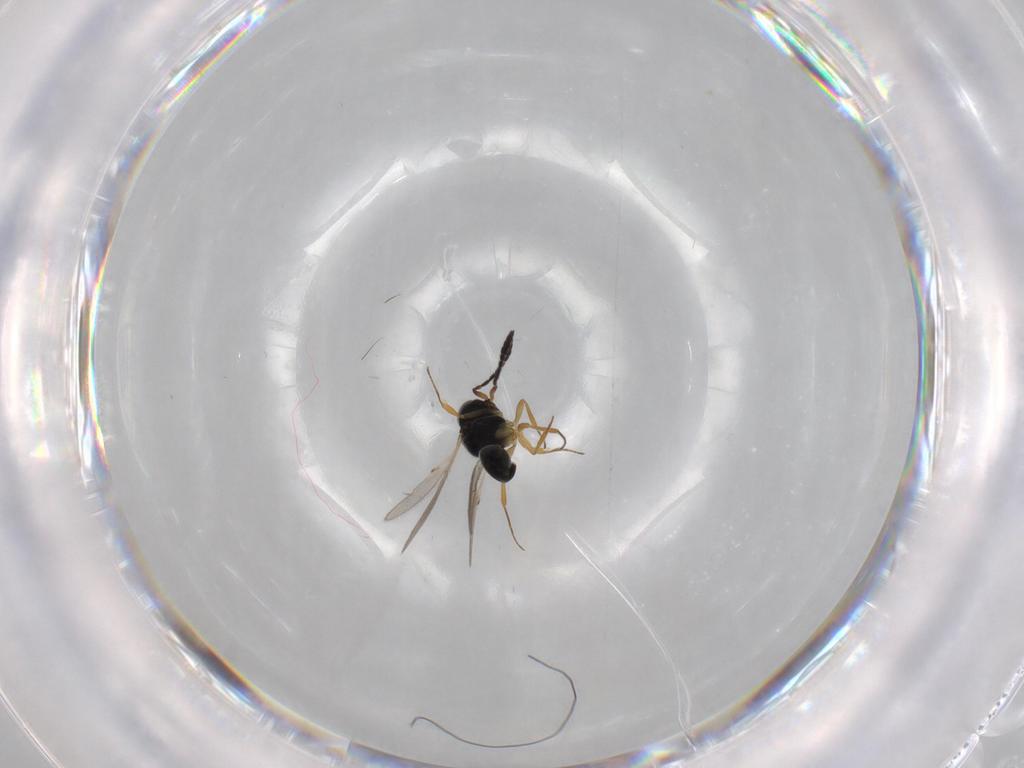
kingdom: Animalia
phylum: Arthropoda
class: Insecta
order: Hymenoptera
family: Scelionidae
